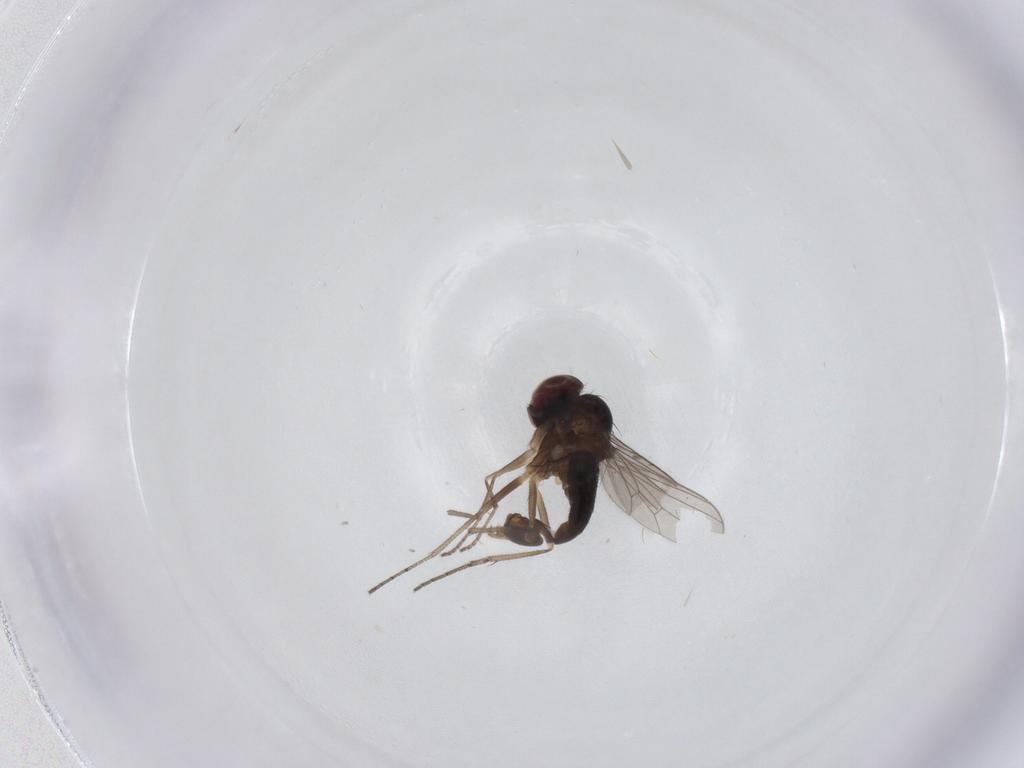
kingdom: Animalia
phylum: Arthropoda
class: Insecta
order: Diptera
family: Dolichopodidae
